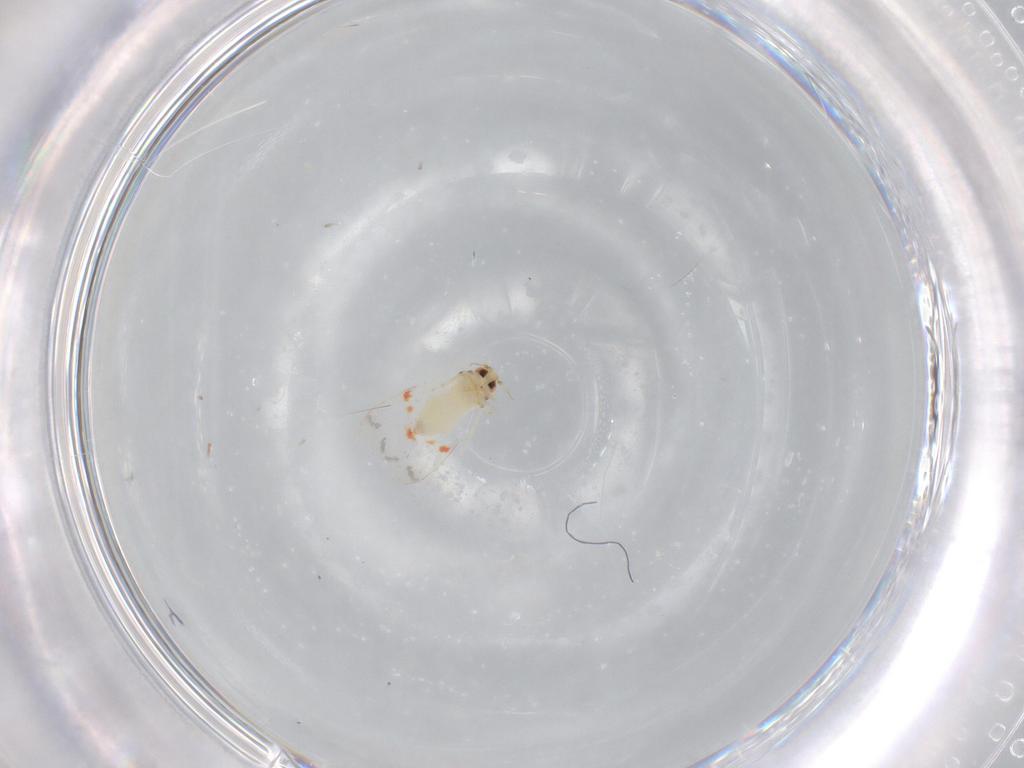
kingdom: Animalia
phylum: Arthropoda
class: Insecta
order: Hemiptera
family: Aleyrodidae
